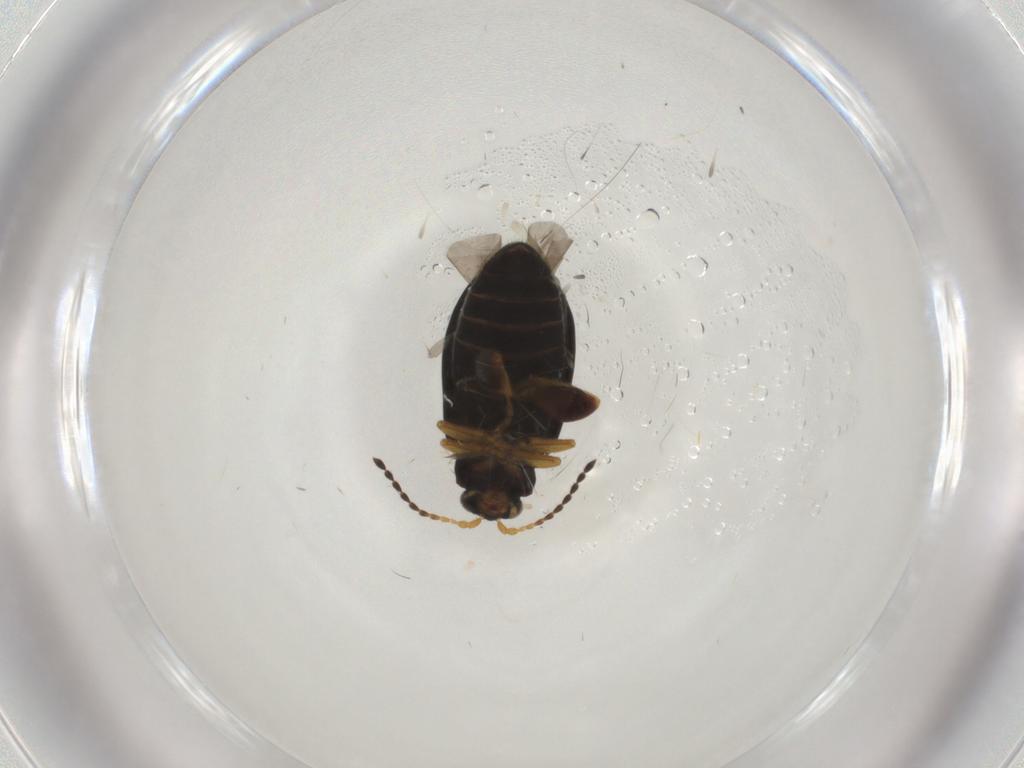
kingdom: Animalia
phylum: Arthropoda
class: Insecta
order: Coleoptera
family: Chrysomelidae
